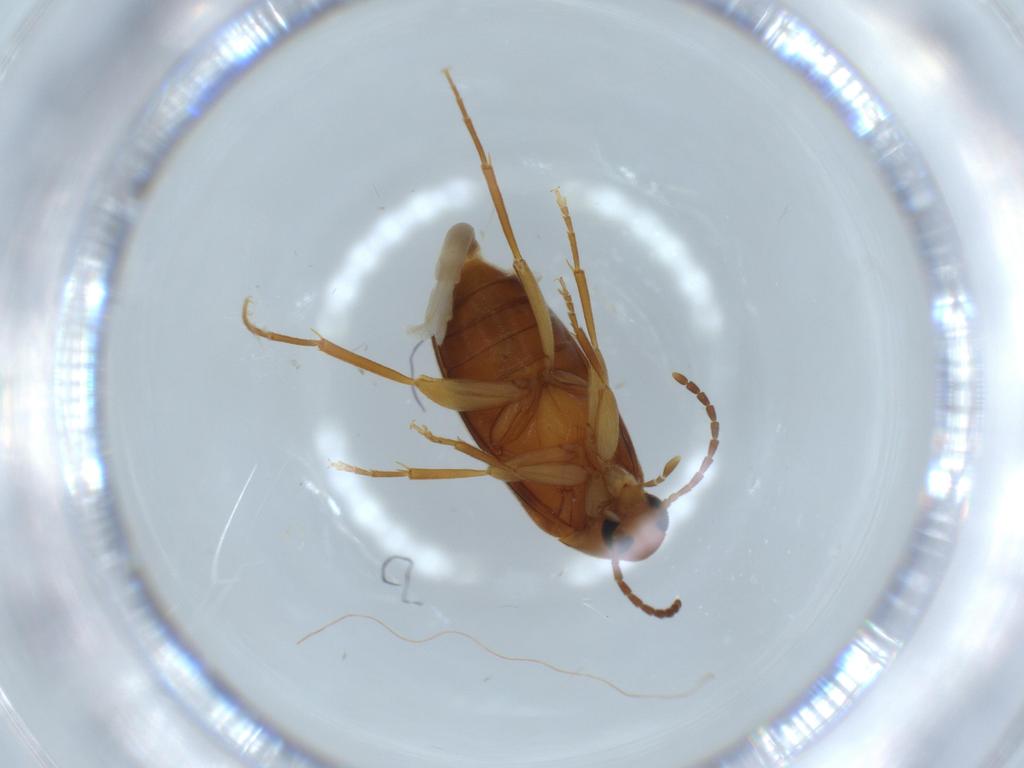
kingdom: Animalia
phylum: Arthropoda
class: Insecta
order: Coleoptera
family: Scraptiidae
